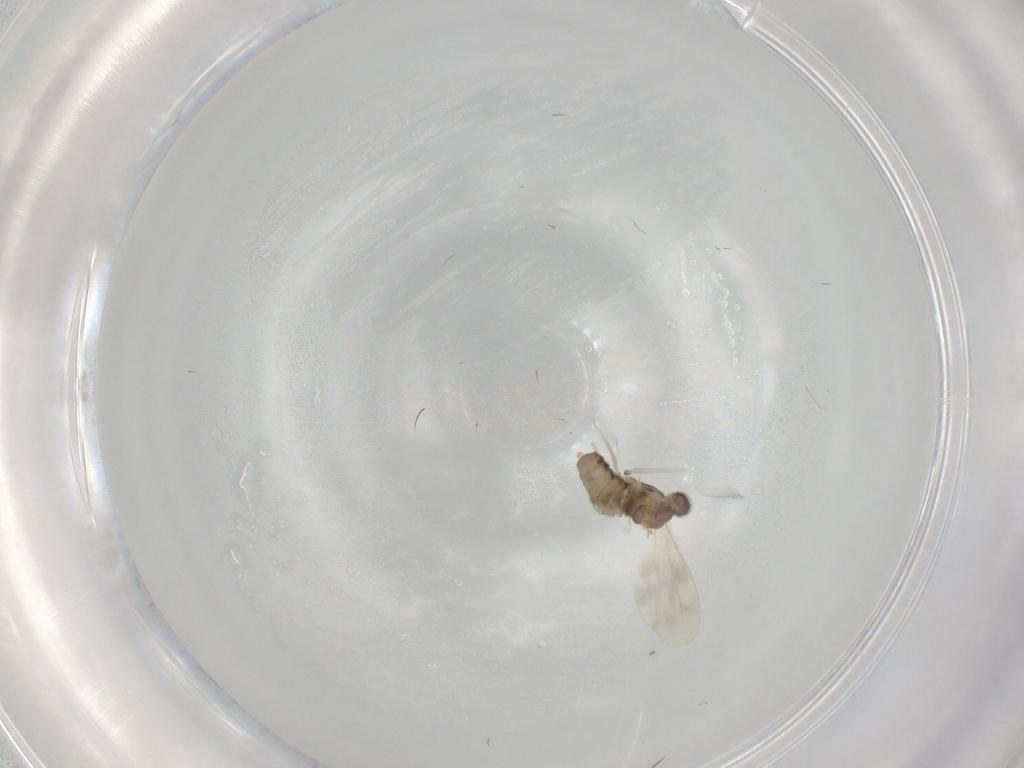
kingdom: Animalia
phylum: Arthropoda
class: Insecta
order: Diptera
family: Cecidomyiidae
